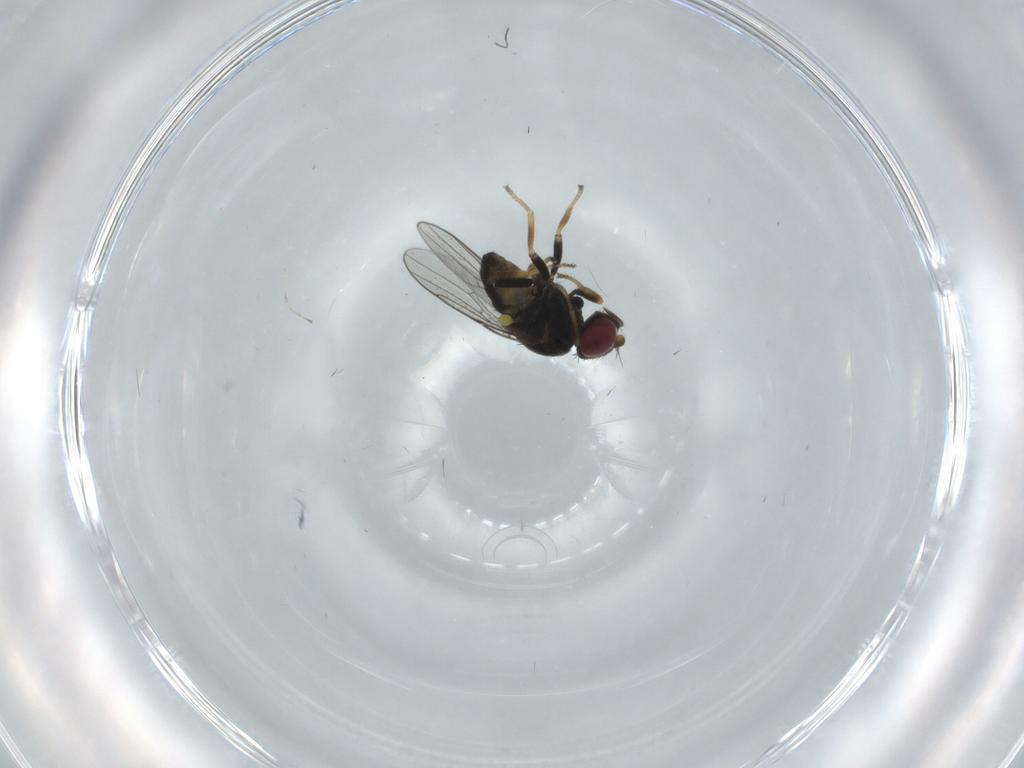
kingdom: Animalia
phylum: Arthropoda
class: Insecta
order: Diptera
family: Chloropidae
